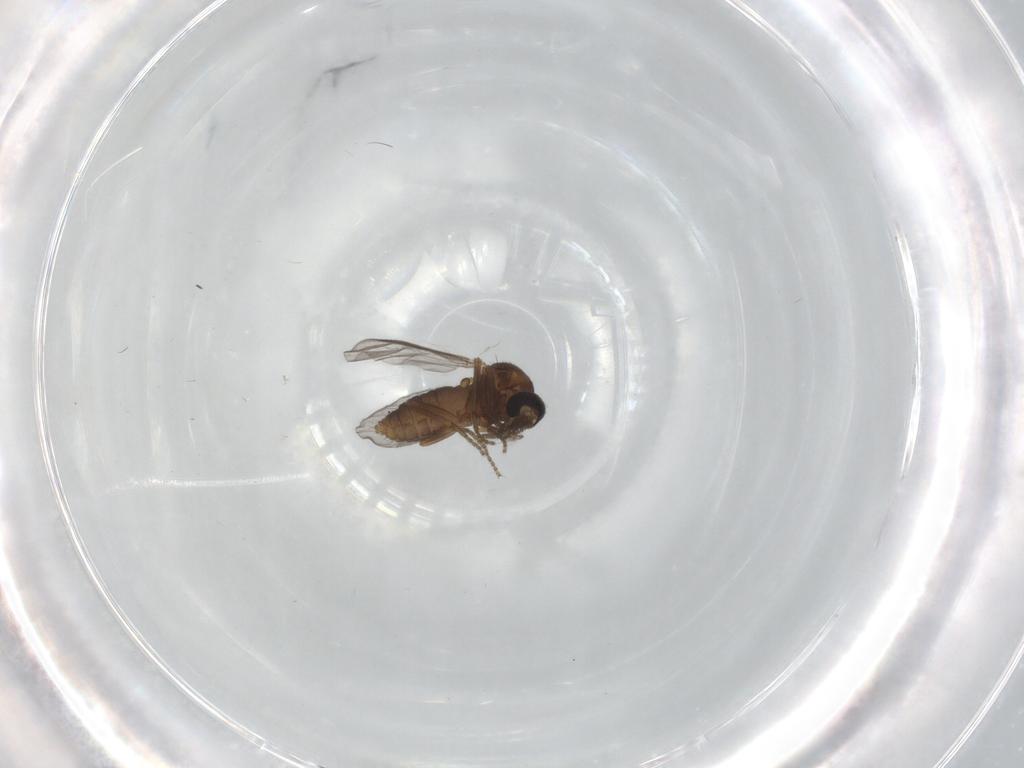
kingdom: Animalia
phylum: Arthropoda
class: Insecta
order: Diptera
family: Ceratopogonidae
